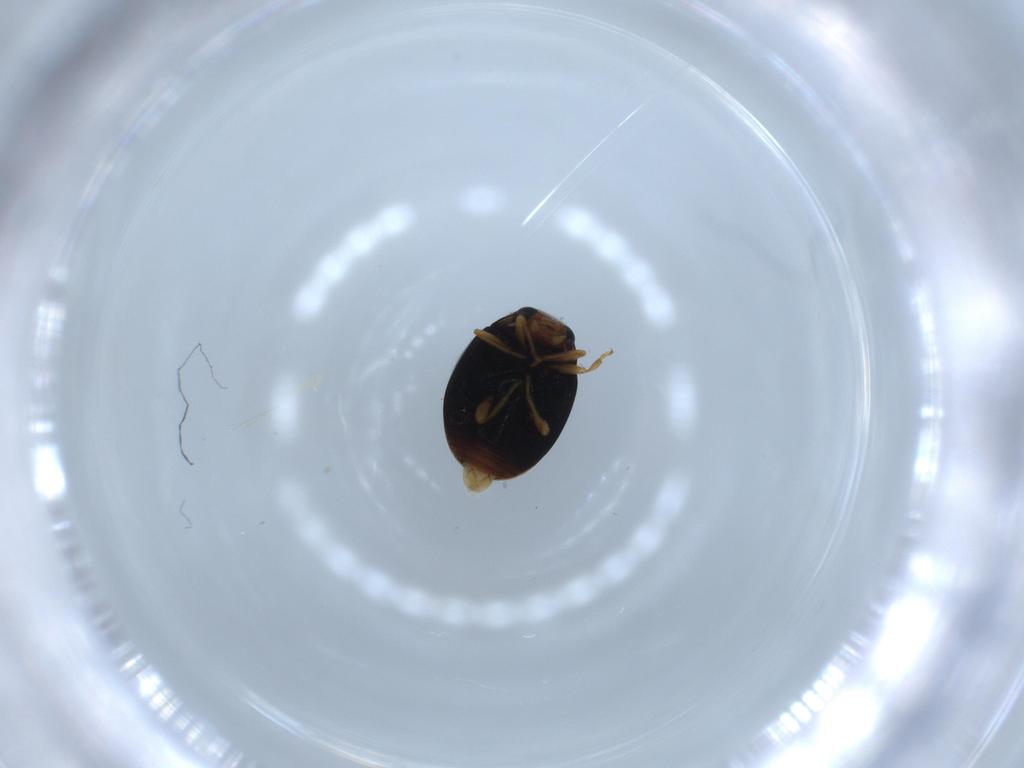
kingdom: Animalia
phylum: Arthropoda
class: Insecta
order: Coleoptera
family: Coccinellidae
